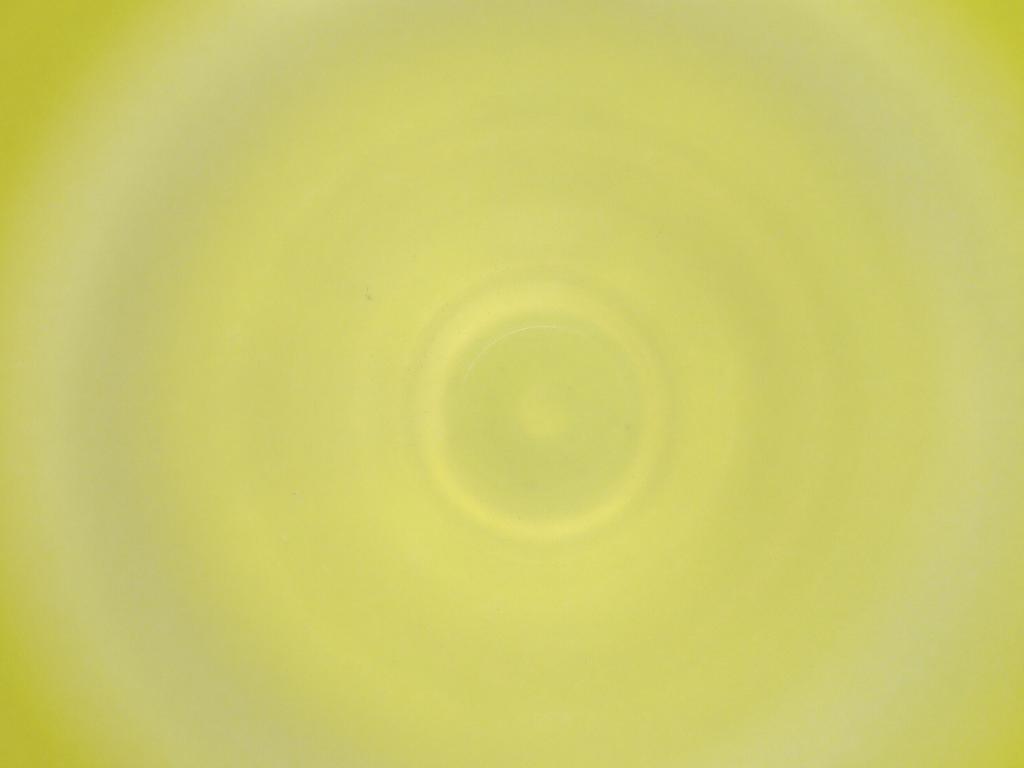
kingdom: Animalia
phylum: Arthropoda
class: Insecta
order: Diptera
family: Cecidomyiidae
